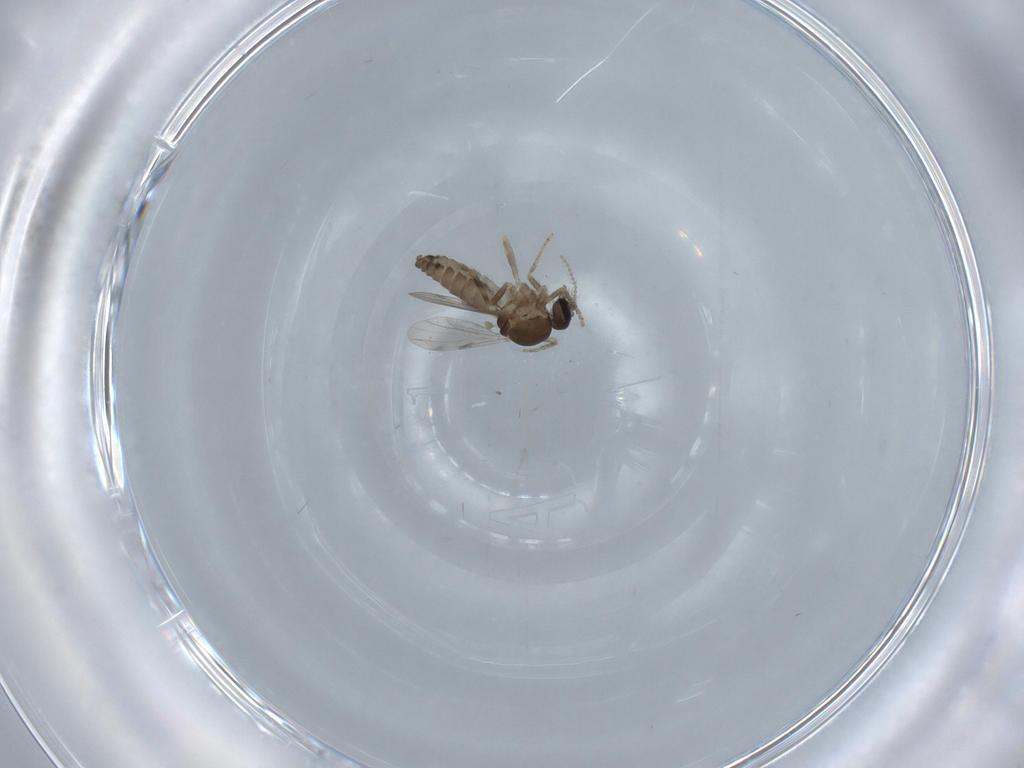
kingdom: Animalia
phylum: Arthropoda
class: Insecta
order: Diptera
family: Ceratopogonidae
